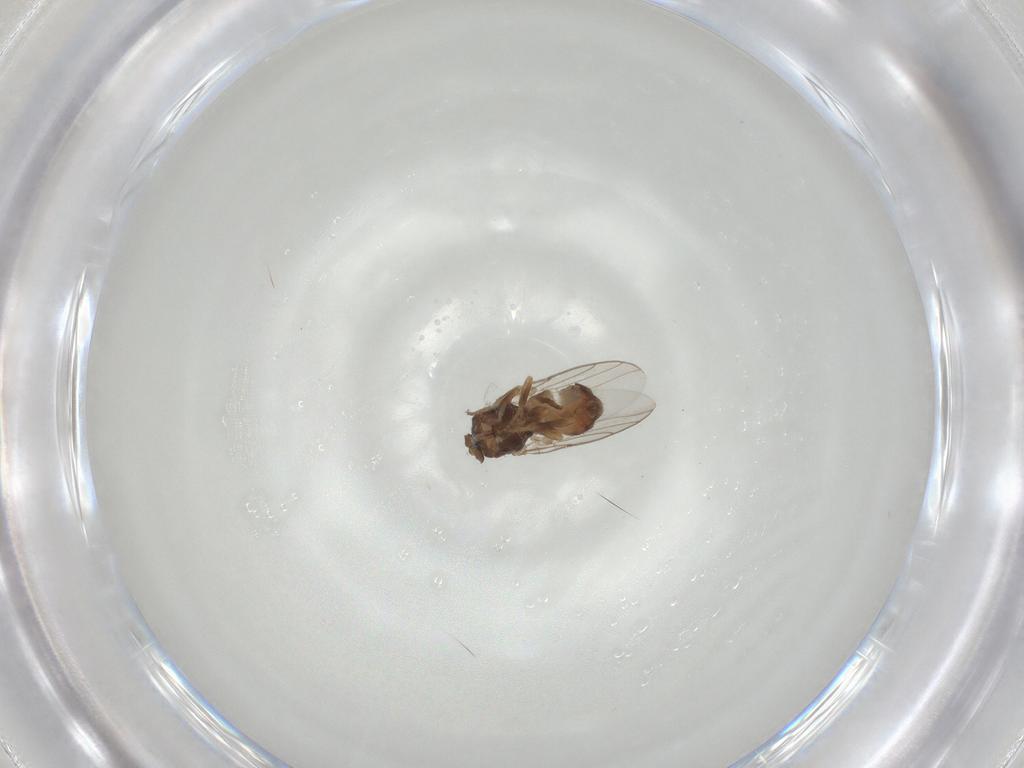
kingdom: Animalia
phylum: Arthropoda
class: Insecta
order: Diptera
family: Chloropidae
